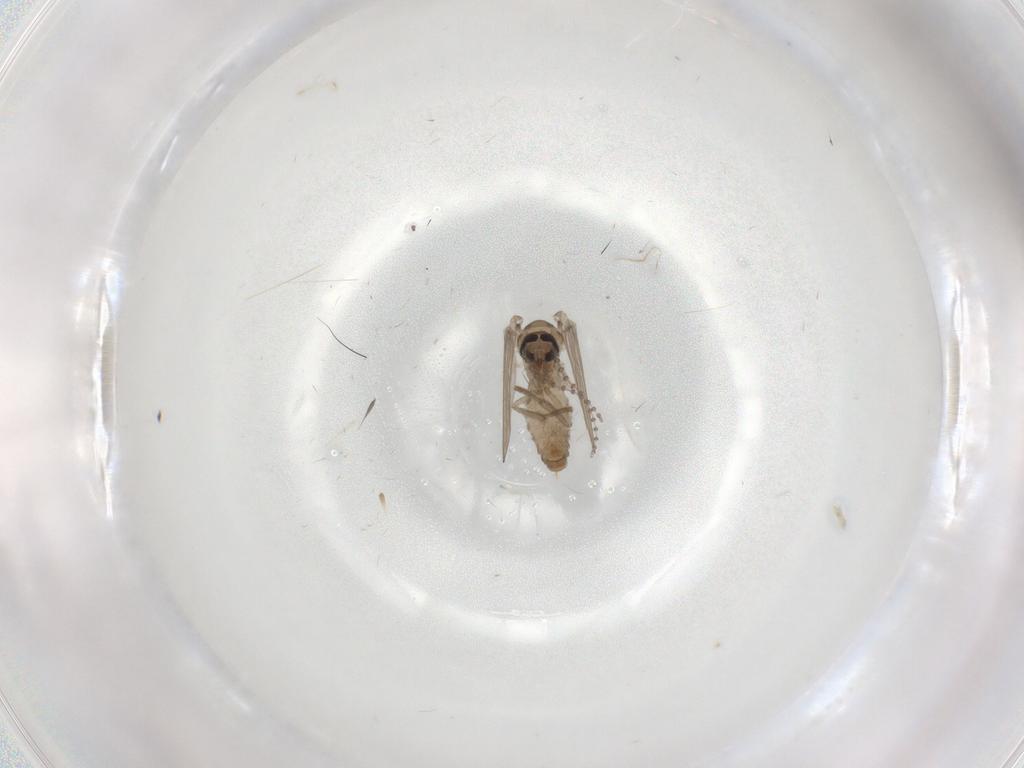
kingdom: Animalia
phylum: Arthropoda
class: Insecta
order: Diptera
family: Psychodidae
